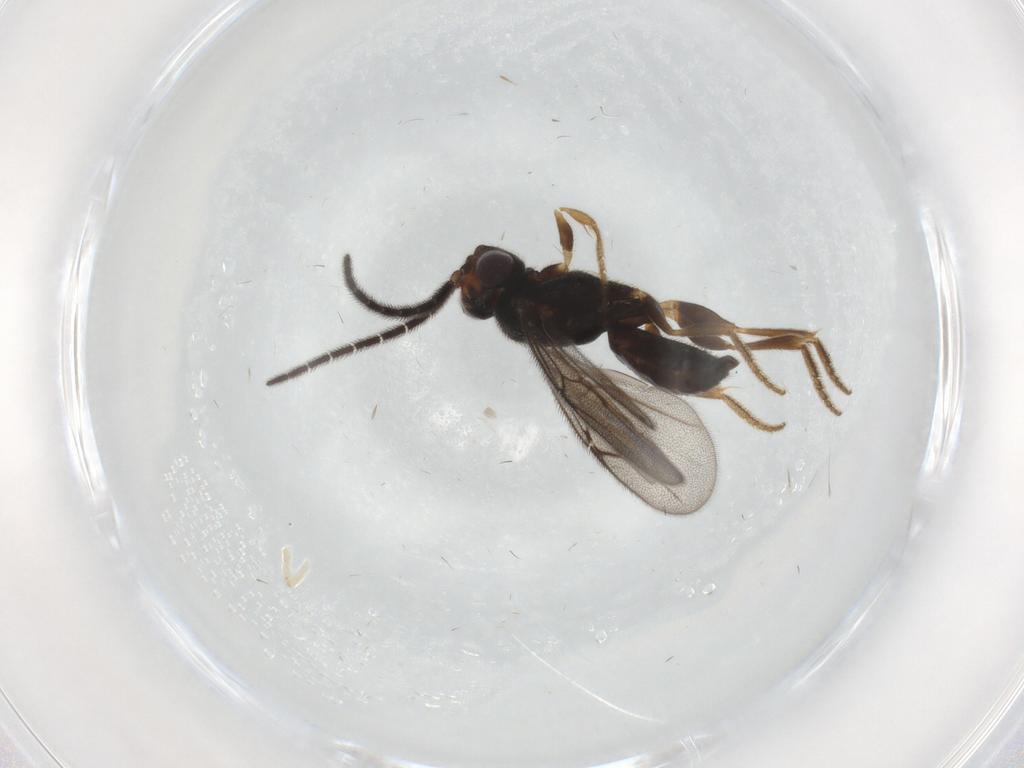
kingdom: Animalia
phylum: Arthropoda
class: Insecta
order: Hymenoptera
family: Dryinidae
